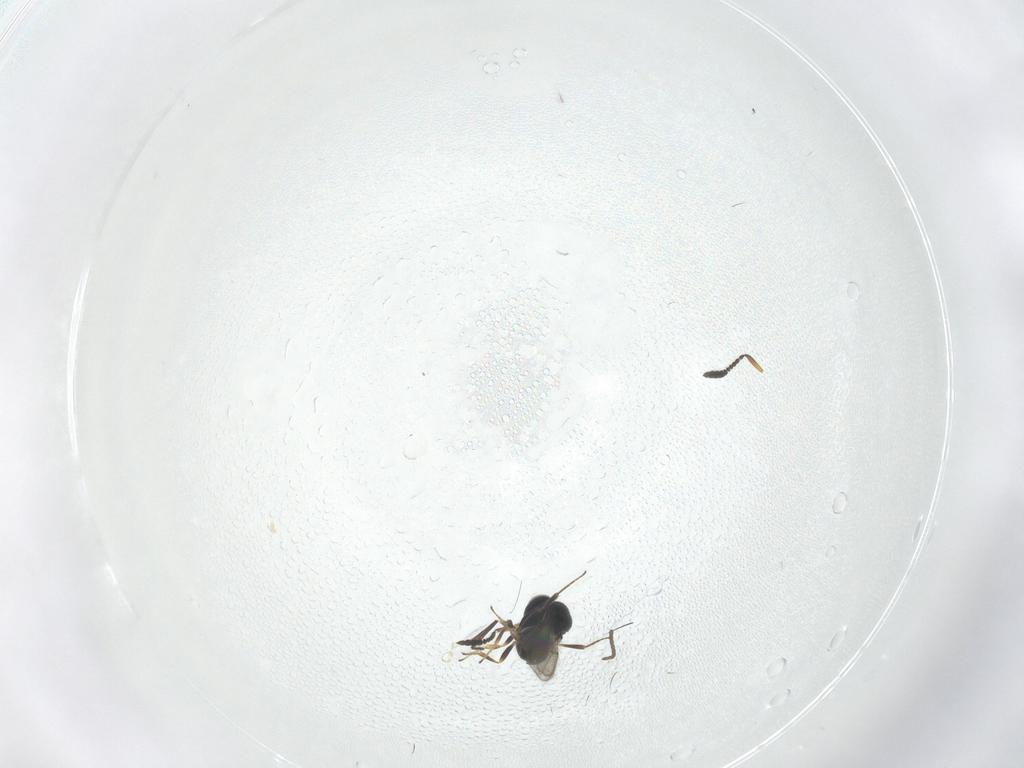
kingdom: Animalia
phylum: Arthropoda
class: Insecta
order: Hymenoptera
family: Scelionidae
